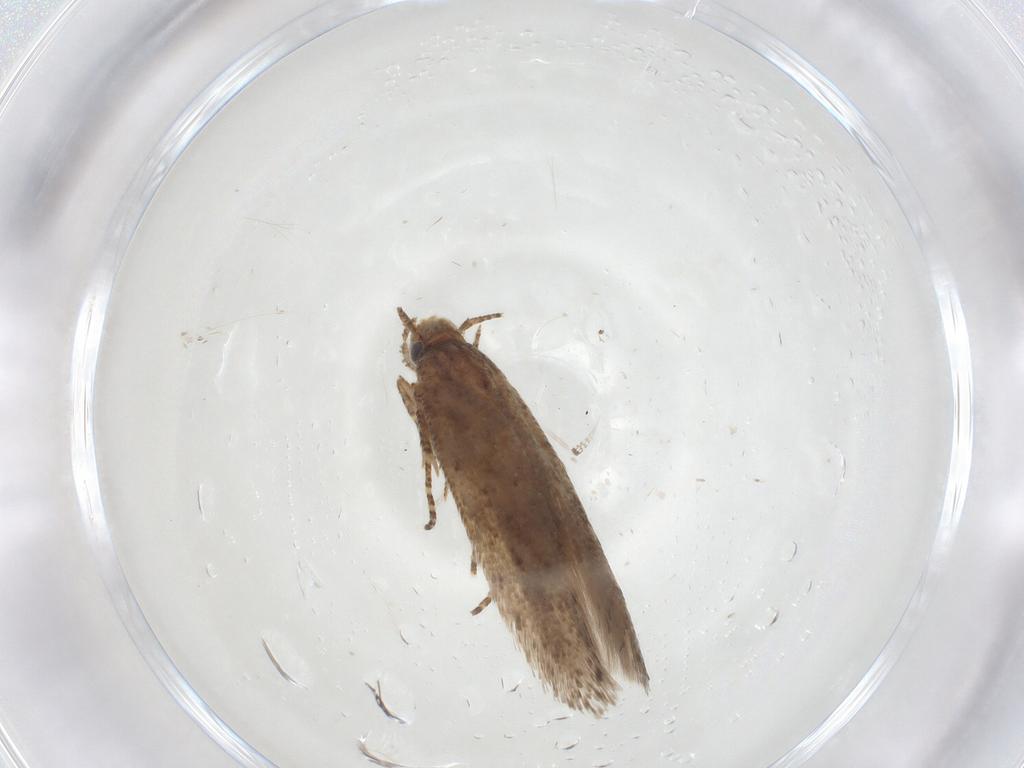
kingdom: Animalia
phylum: Arthropoda
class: Insecta
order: Lepidoptera
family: Gelechiidae
